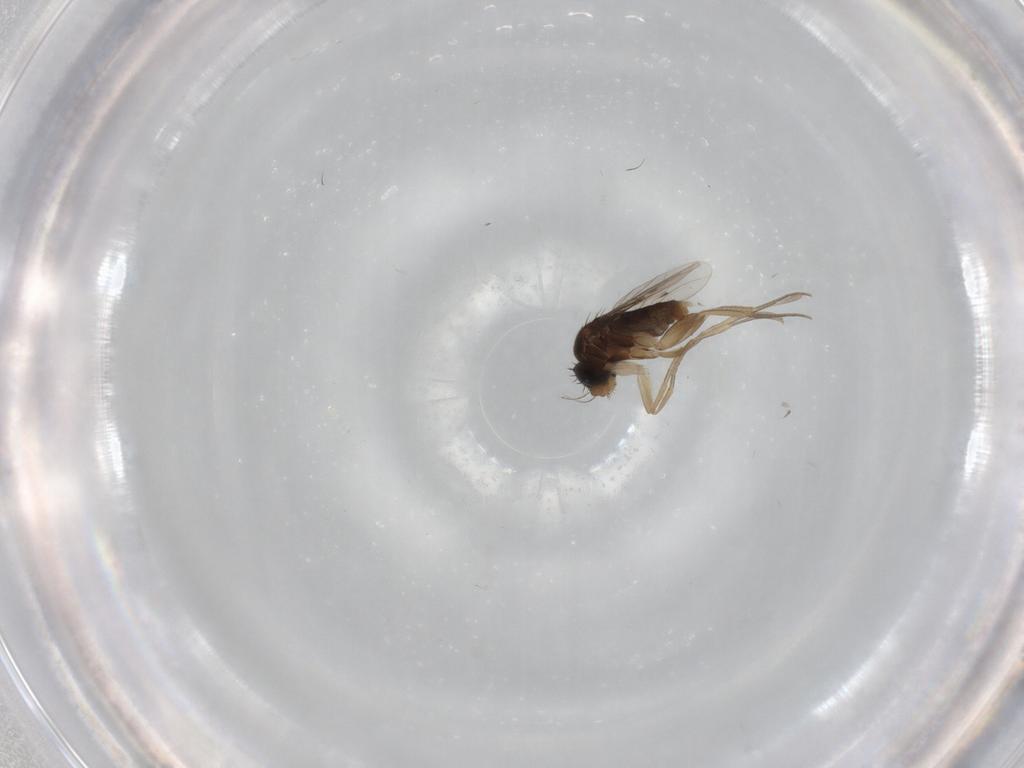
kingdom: Animalia
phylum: Arthropoda
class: Insecta
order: Diptera
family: Phoridae
